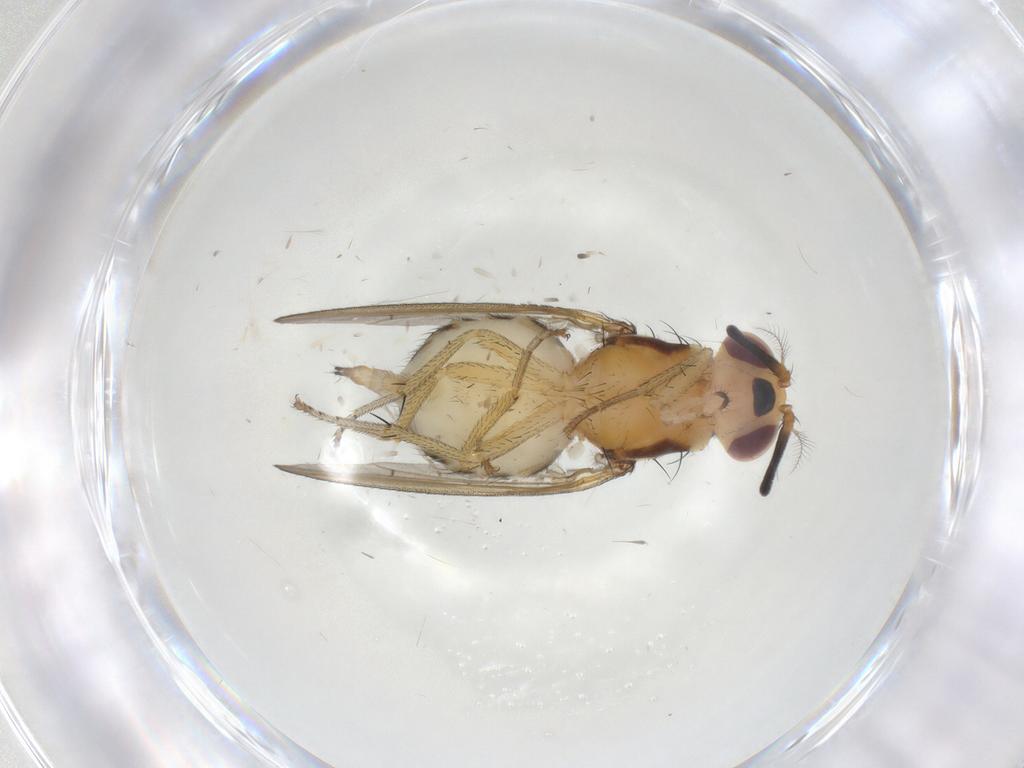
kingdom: Animalia
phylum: Arthropoda
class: Insecta
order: Diptera
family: Lauxaniidae
